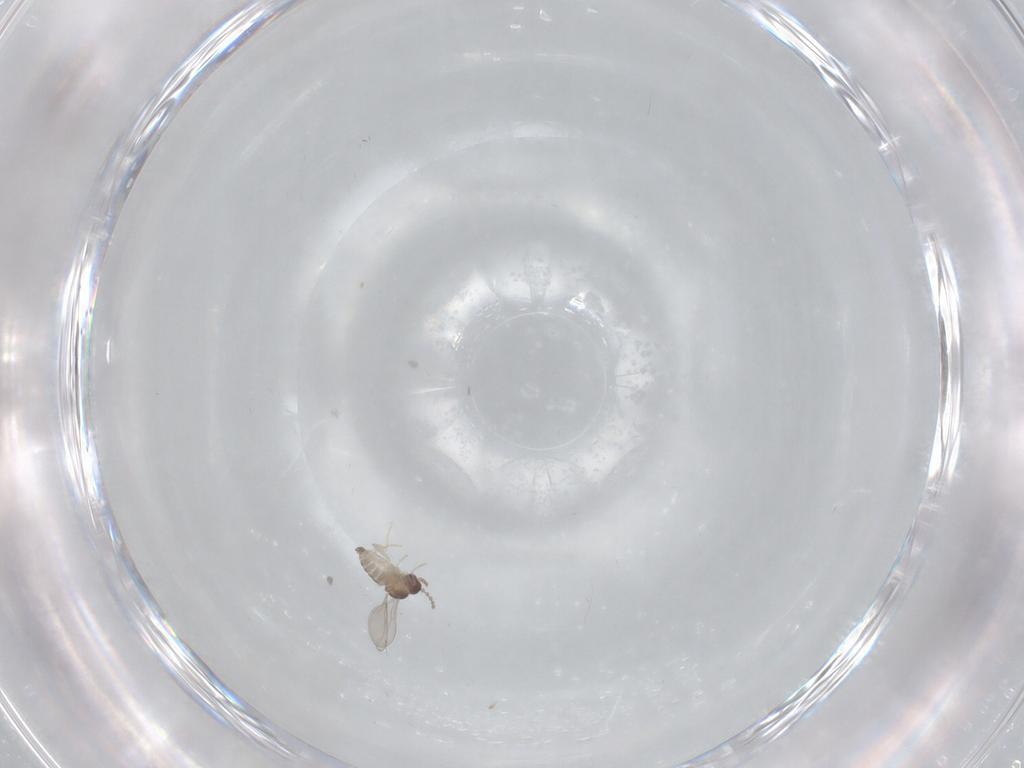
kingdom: Animalia
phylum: Arthropoda
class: Insecta
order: Diptera
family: Cecidomyiidae
